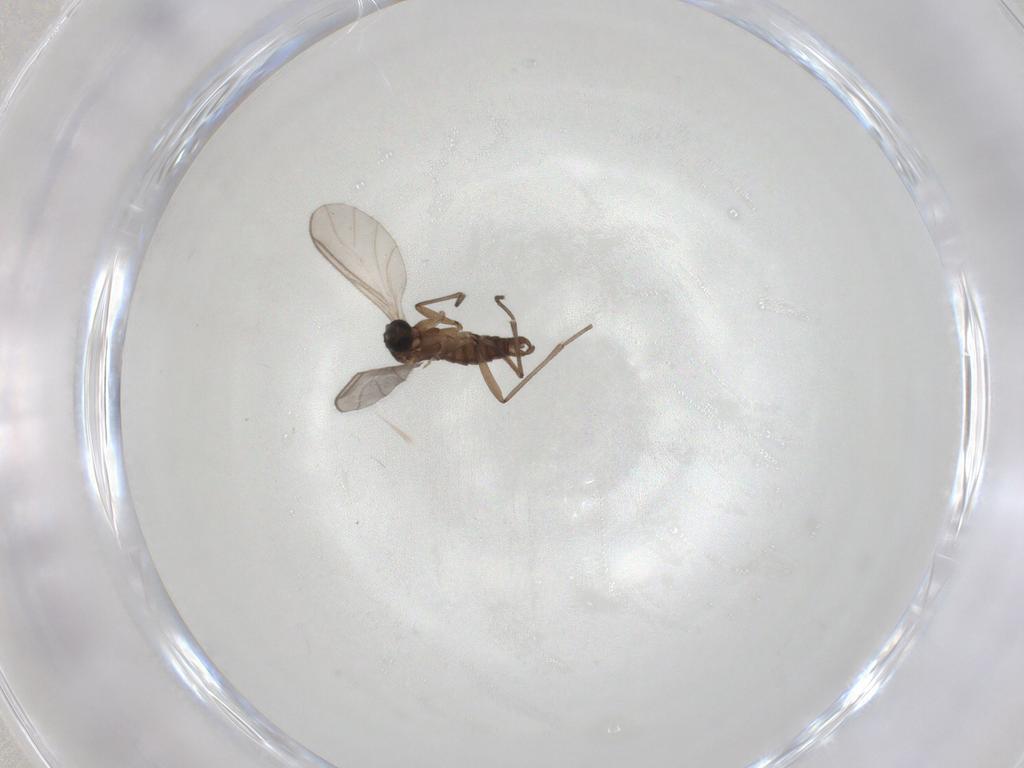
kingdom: Animalia
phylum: Arthropoda
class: Insecta
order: Diptera
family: Sciaridae
